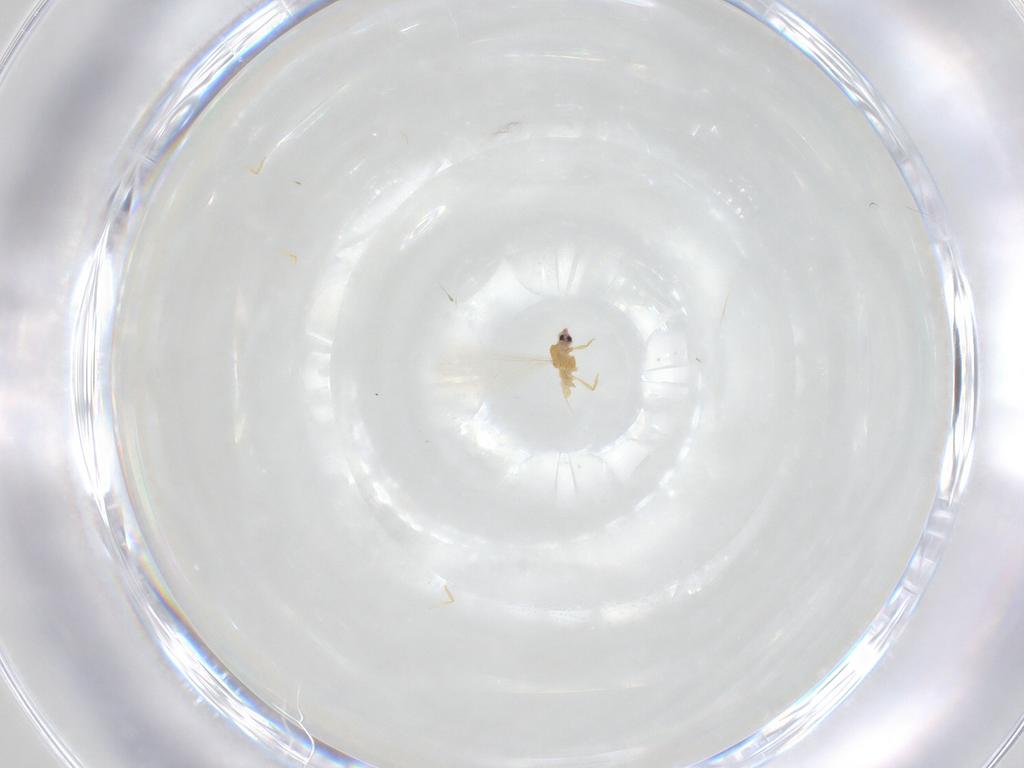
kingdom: Animalia
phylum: Arthropoda
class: Insecta
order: Hemiptera
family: Diaspididae
